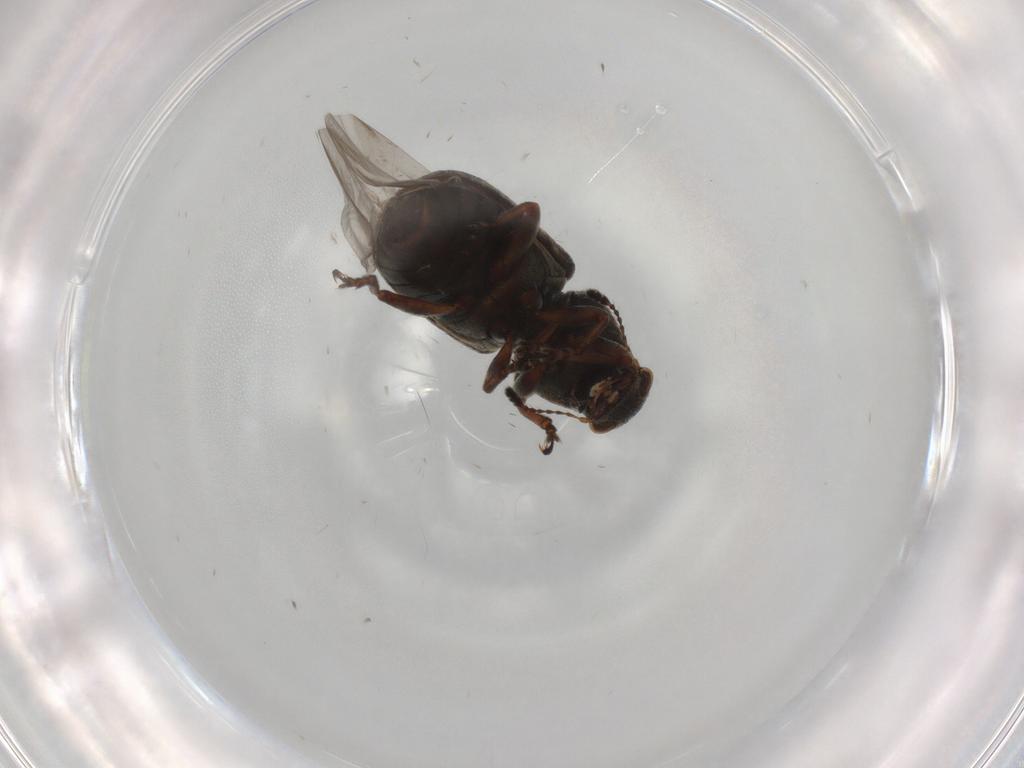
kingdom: Animalia
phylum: Arthropoda
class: Insecta
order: Coleoptera
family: Anthribidae
